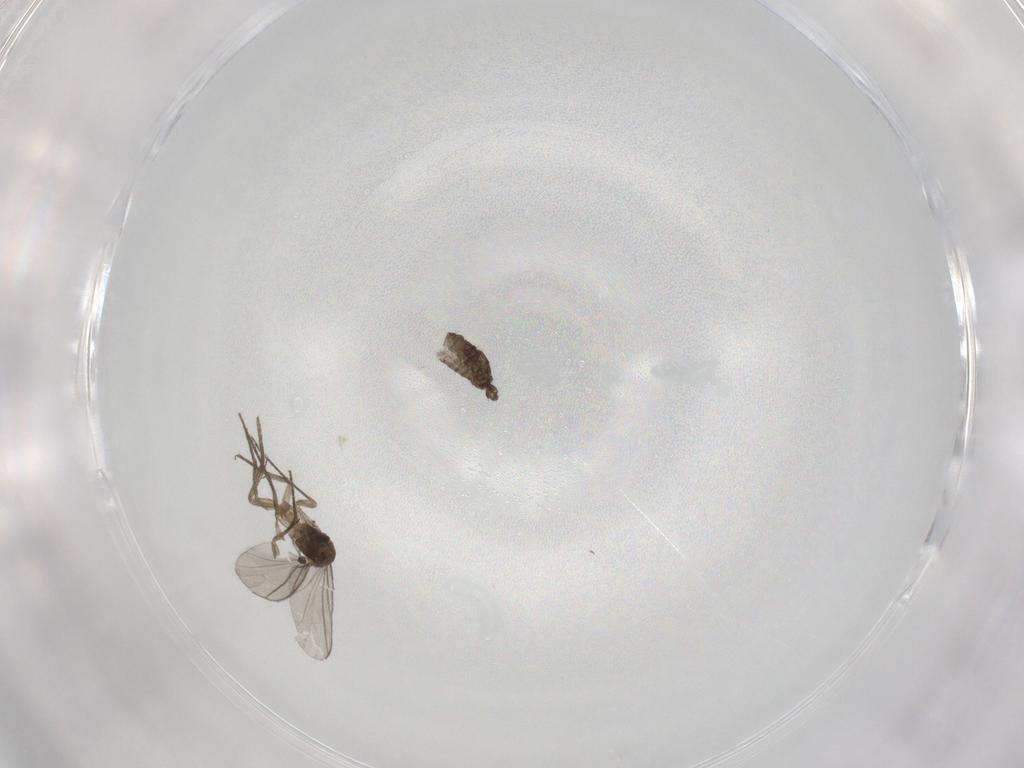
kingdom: Animalia
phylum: Arthropoda
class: Insecta
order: Diptera
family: Sciaridae
